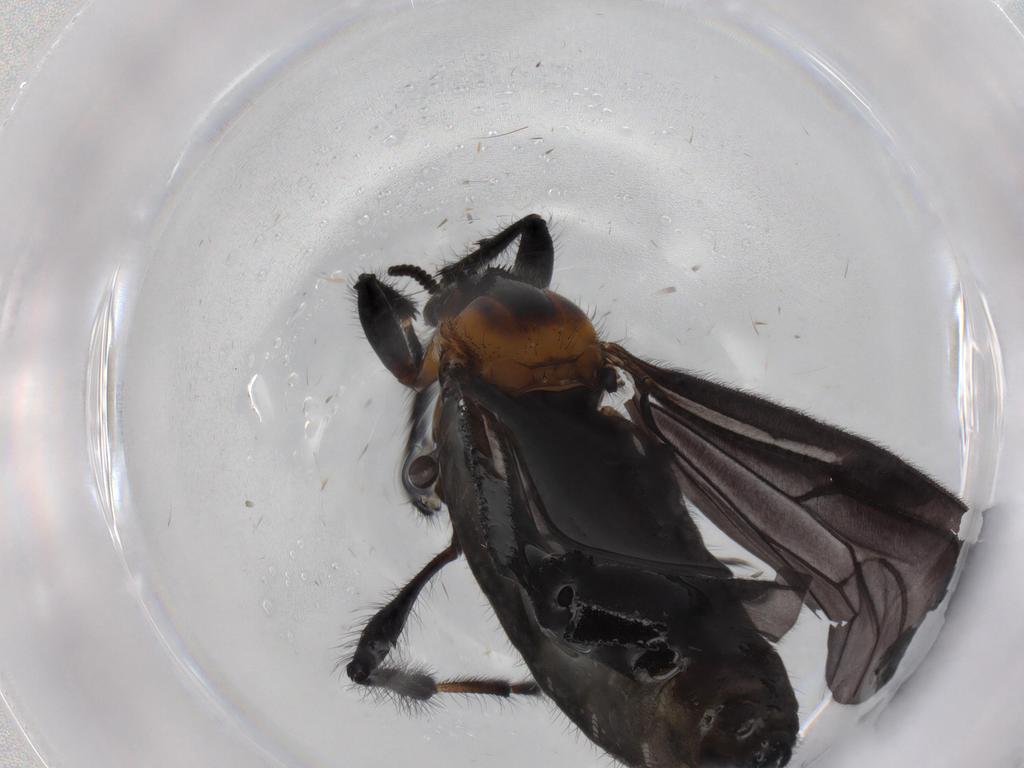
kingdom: Animalia
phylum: Arthropoda
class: Insecta
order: Diptera
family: Bibionidae
